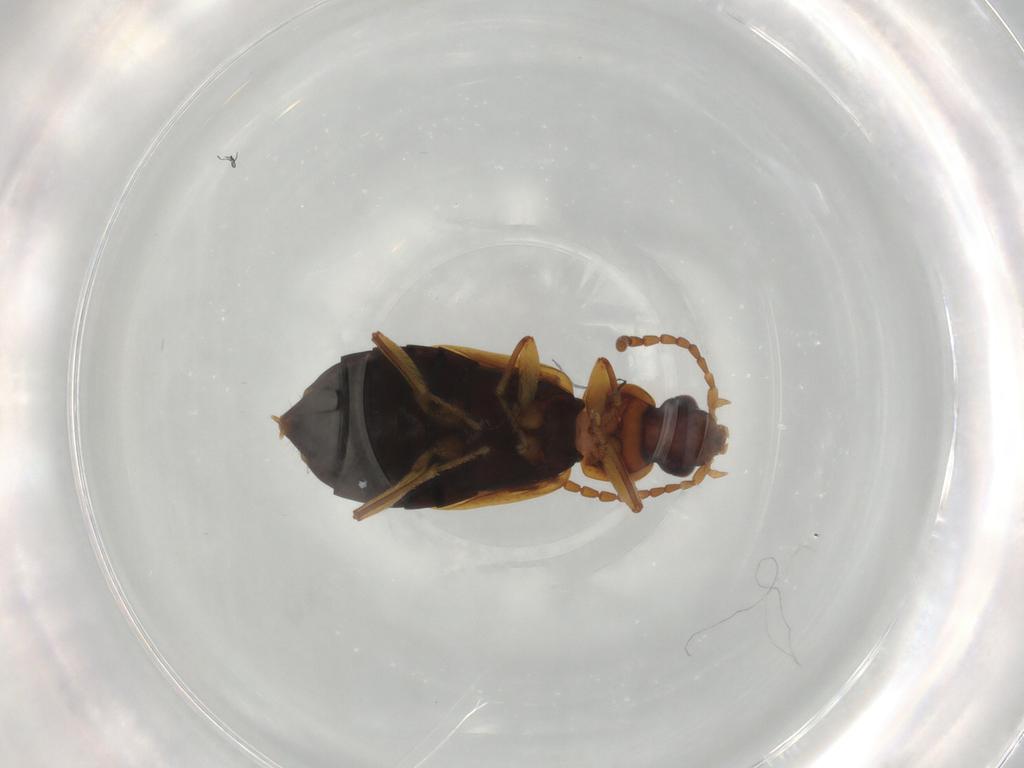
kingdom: Animalia
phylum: Arthropoda
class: Insecta
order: Coleoptera
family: Staphylinidae
